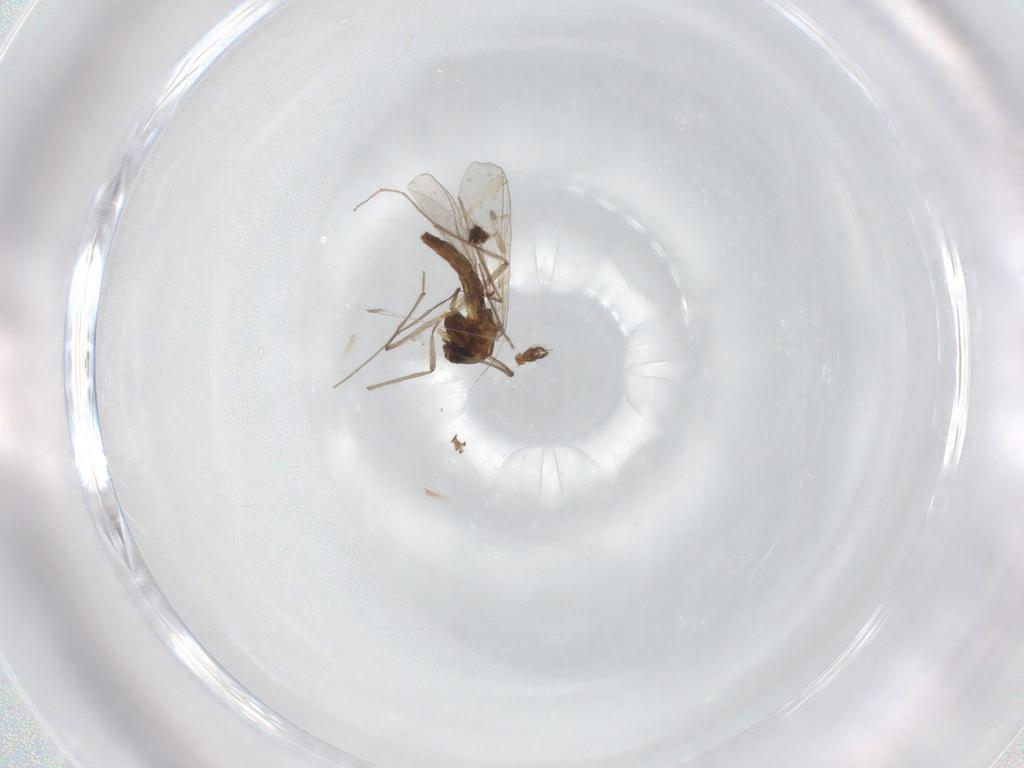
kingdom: Animalia
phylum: Arthropoda
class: Insecta
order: Diptera
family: Chironomidae
